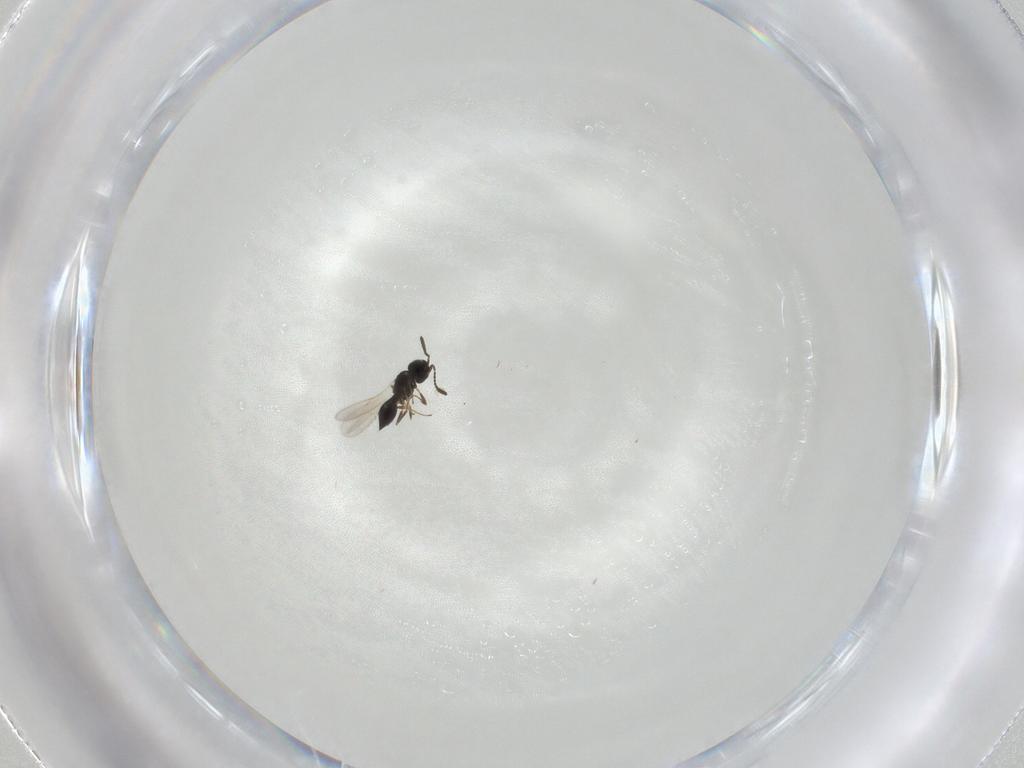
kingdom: Animalia
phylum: Arthropoda
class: Insecta
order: Hymenoptera
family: Scelionidae
